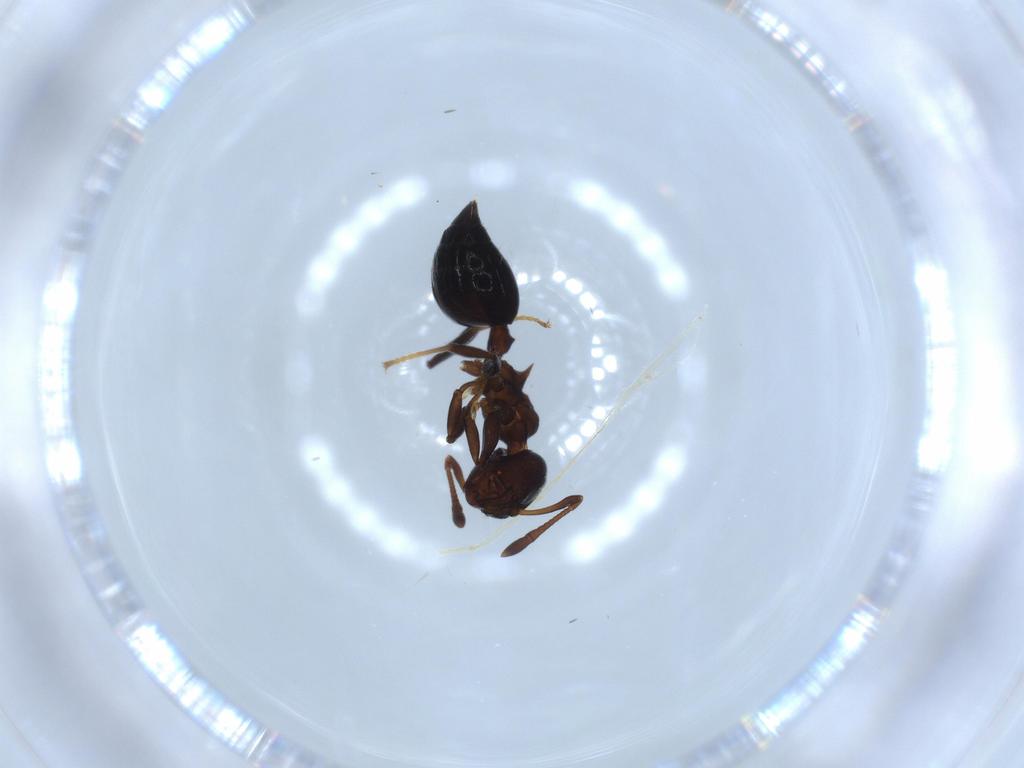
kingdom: Animalia
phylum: Arthropoda
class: Insecta
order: Hymenoptera
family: Formicidae
